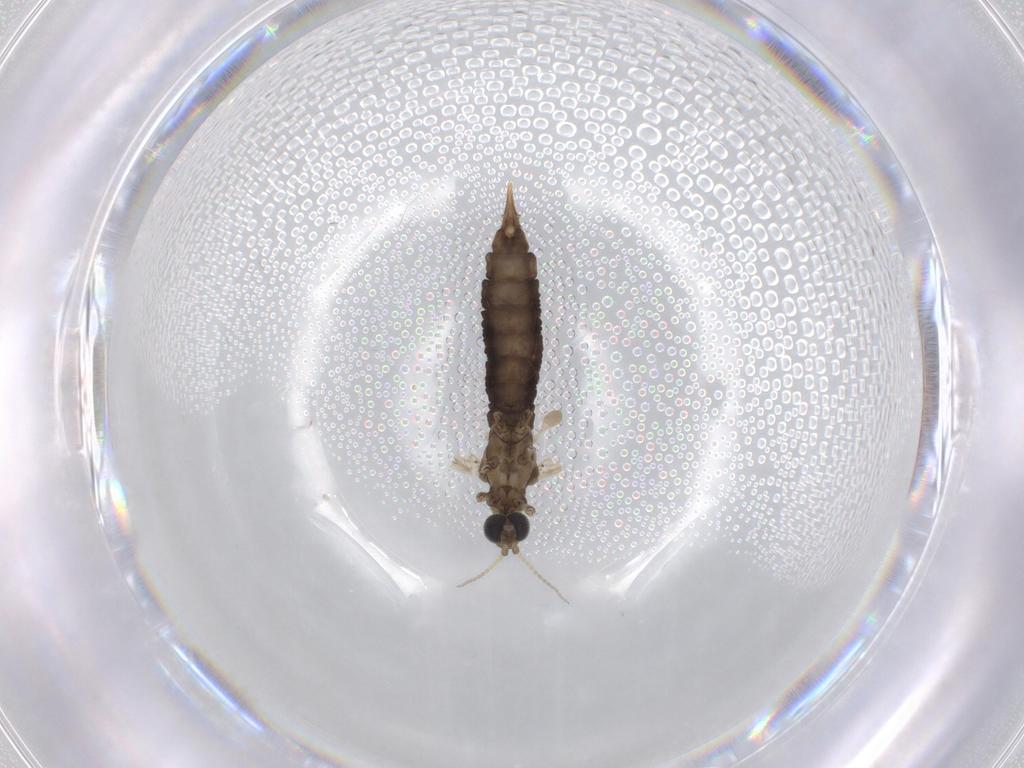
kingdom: Animalia
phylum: Arthropoda
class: Insecta
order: Diptera
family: Limoniidae
